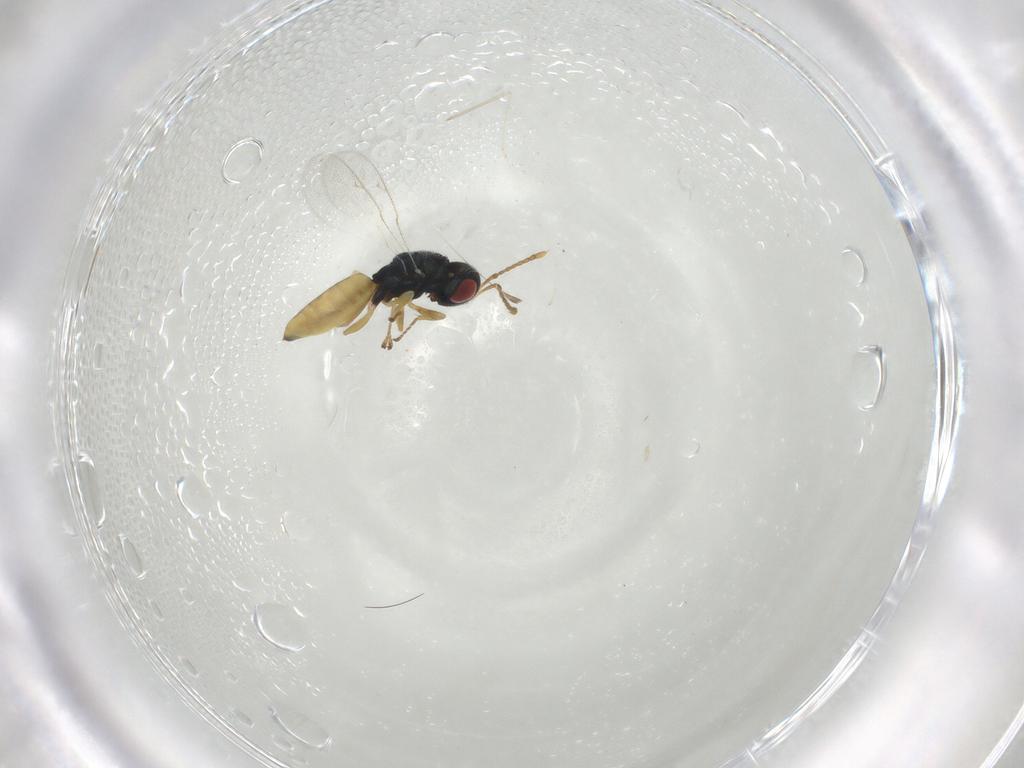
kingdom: Animalia
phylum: Arthropoda
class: Insecta
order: Hymenoptera
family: Pteromalidae
